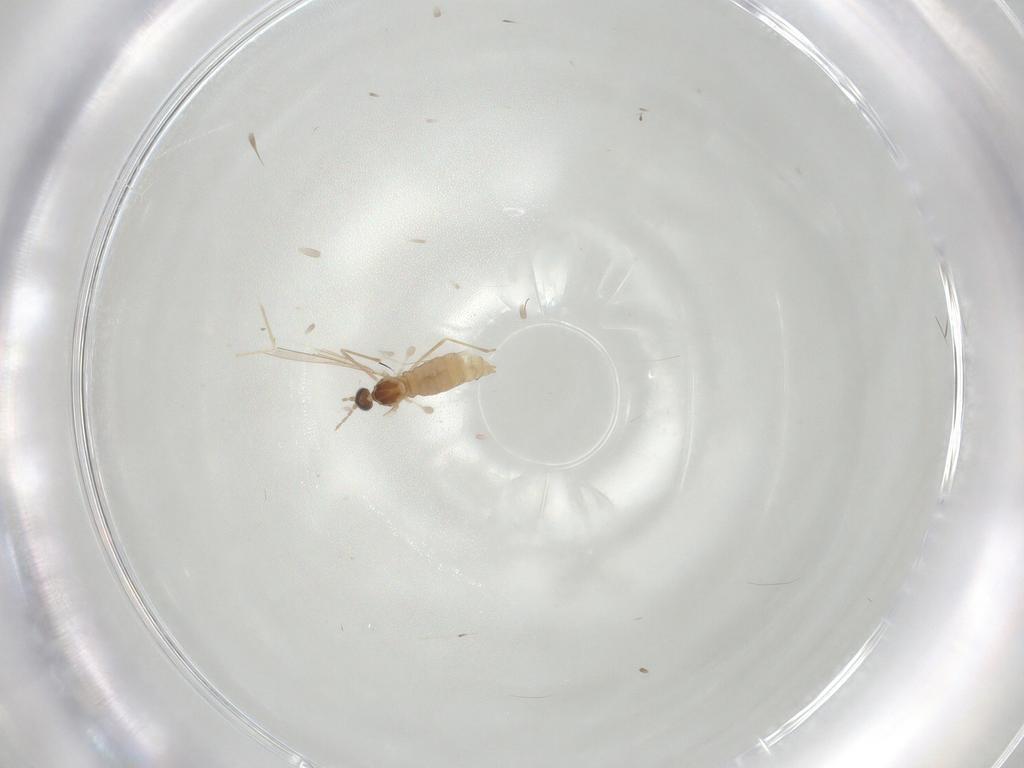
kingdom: Animalia
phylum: Arthropoda
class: Insecta
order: Diptera
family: Cecidomyiidae
